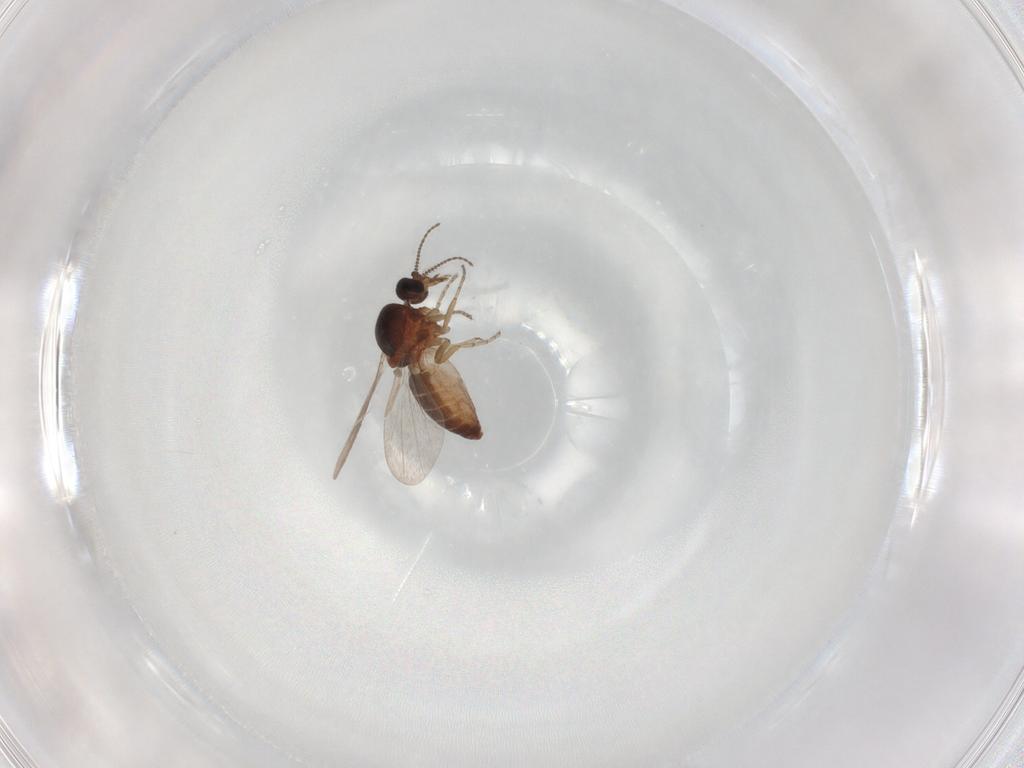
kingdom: Animalia
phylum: Arthropoda
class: Insecta
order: Diptera
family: Ceratopogonidae
